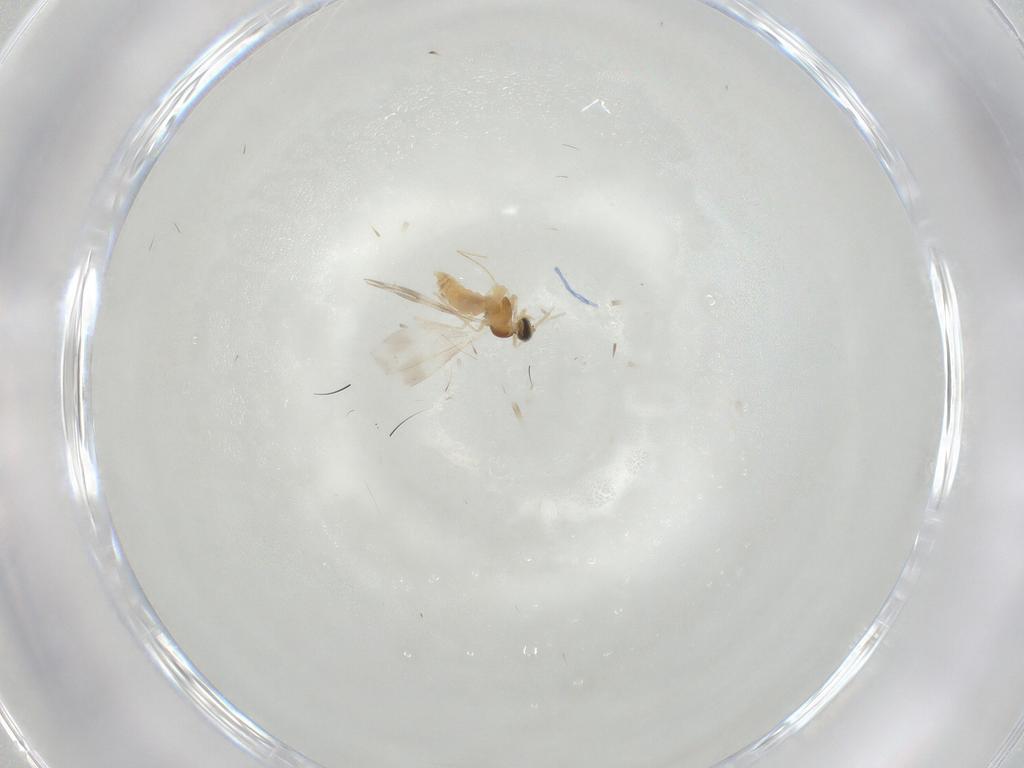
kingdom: Animalia
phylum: Arthropoda
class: Insecta
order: Diptera
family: Cecidomyiidae
